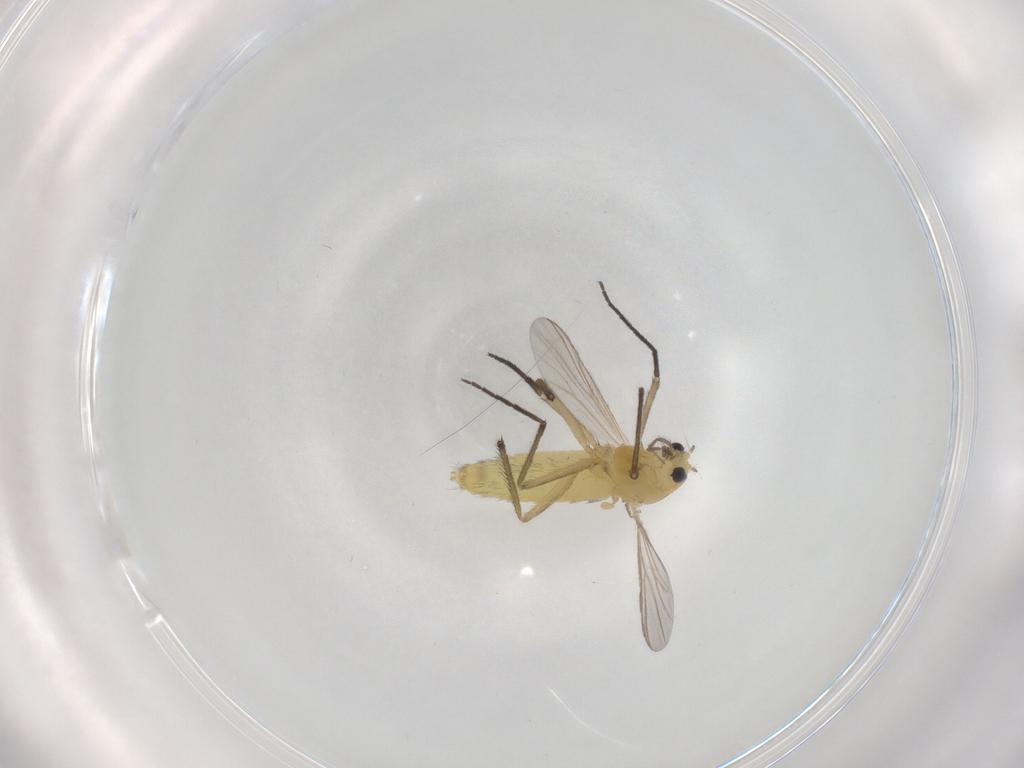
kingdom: Animalia
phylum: Arthropoda
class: Insecta
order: Diptera
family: Chironomidae
